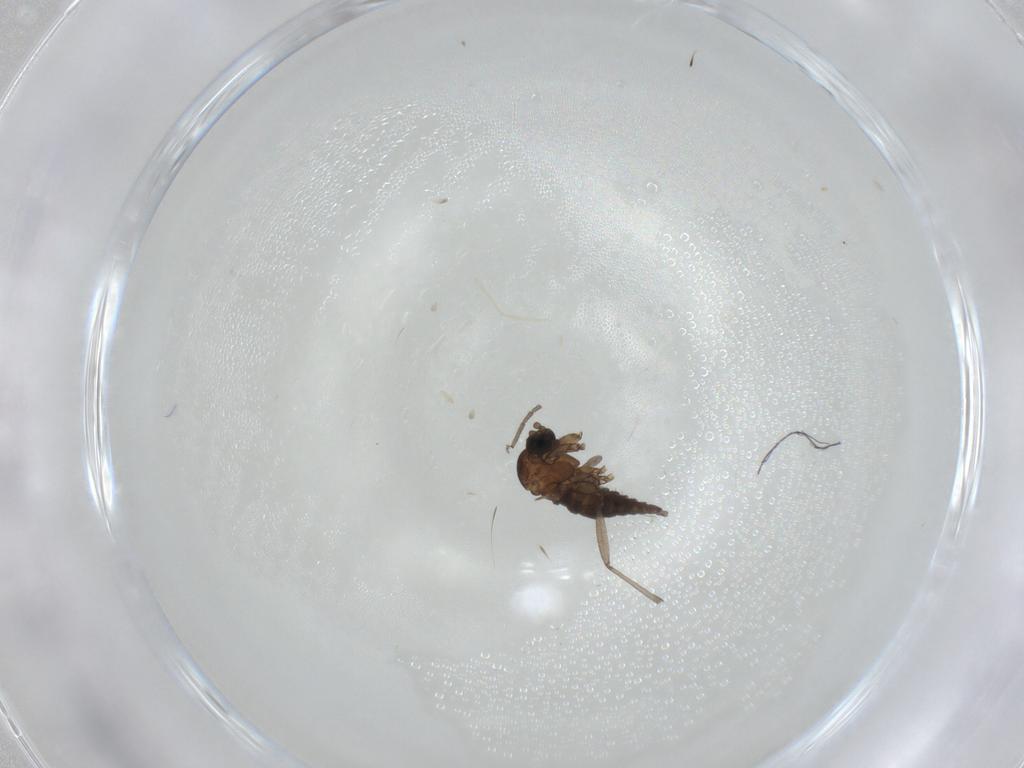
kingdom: Animalia
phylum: Arthropoda
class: Insecta
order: Diptera
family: Sciaridae
